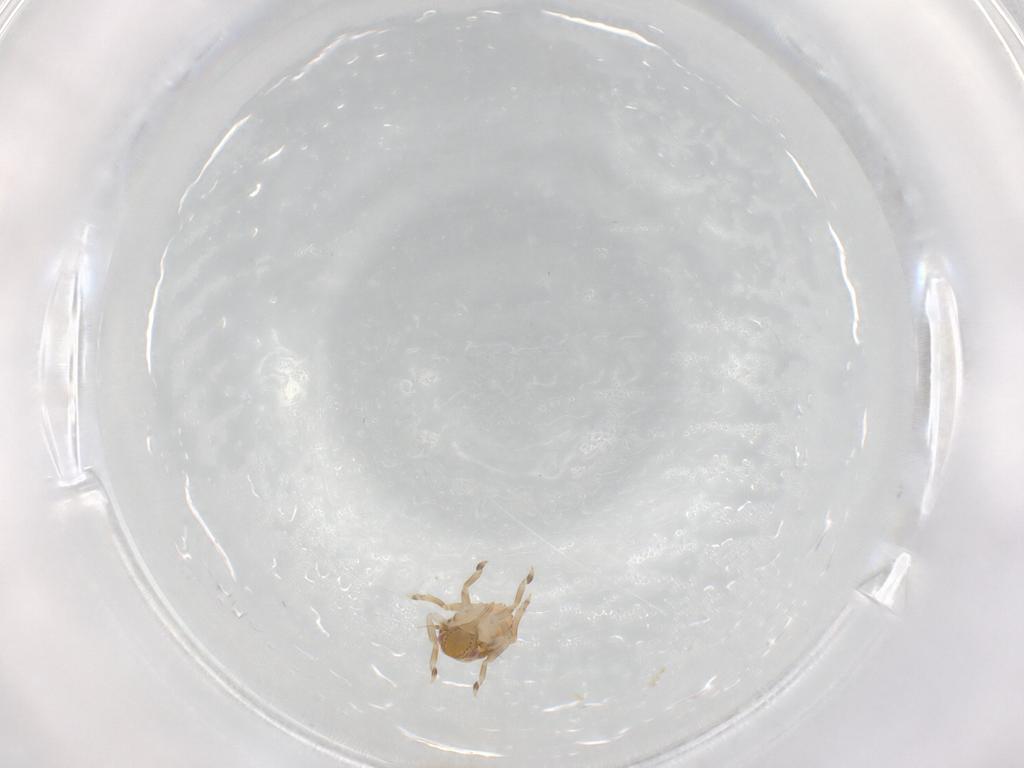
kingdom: Animalia
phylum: Arthropoda
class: Insecta
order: Hemiptera
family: Flatidae
